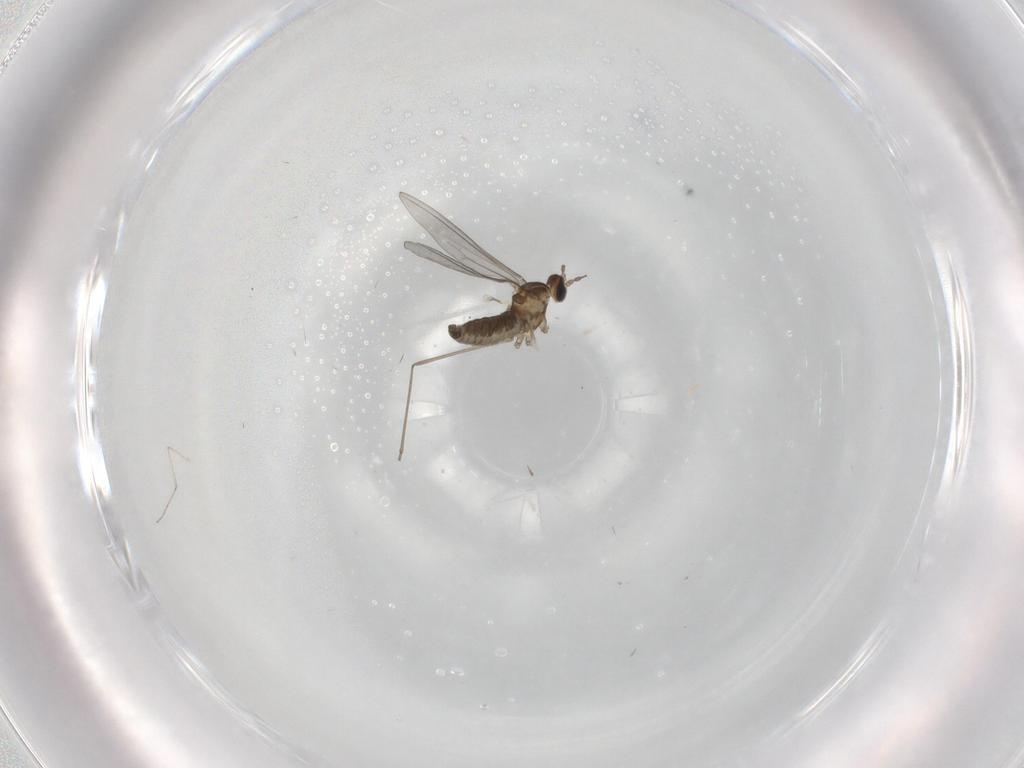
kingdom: Animalia
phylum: Arthropoda
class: Insecta
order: Diptera
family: Cecidomyiidae
